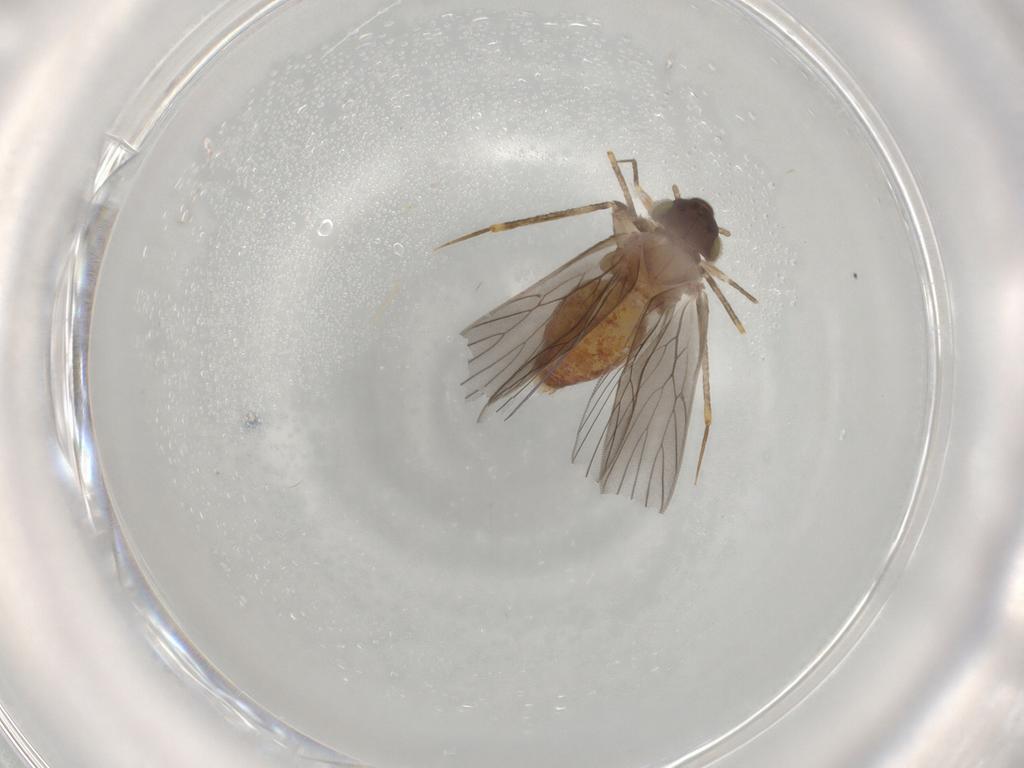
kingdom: Animalia
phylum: Arthropoda
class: Insecta
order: Psocodea
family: Lepidopsocidae
